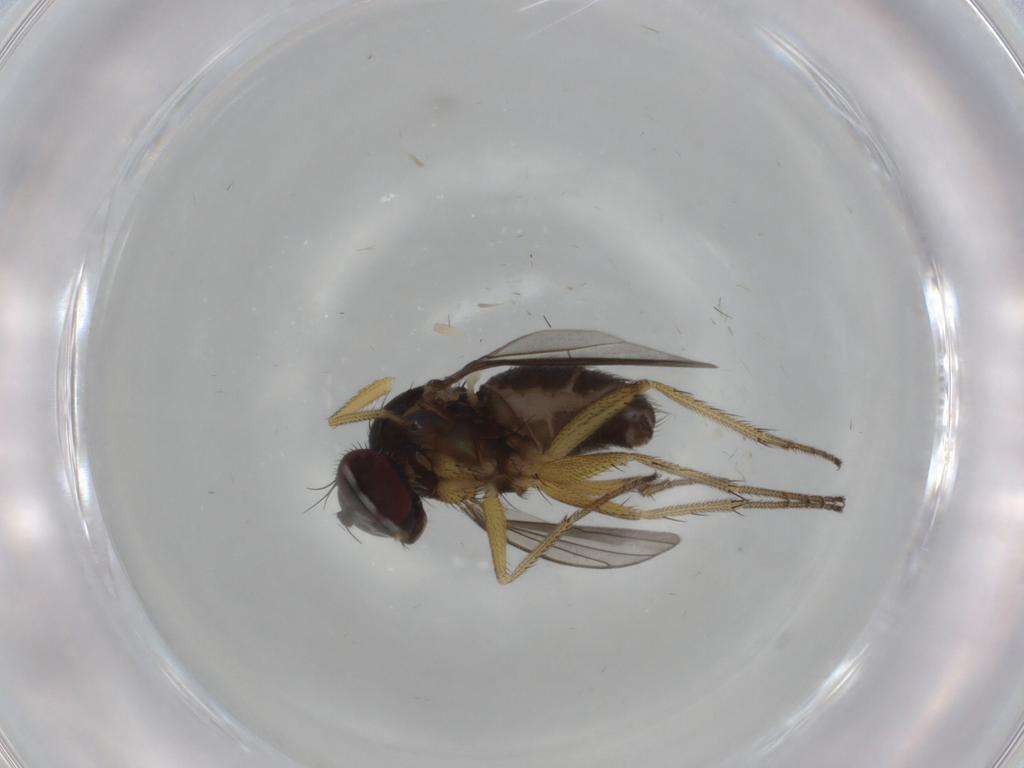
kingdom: Animalia
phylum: Arthropoda
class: Insecta
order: Diptera
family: Dolichopodidae
